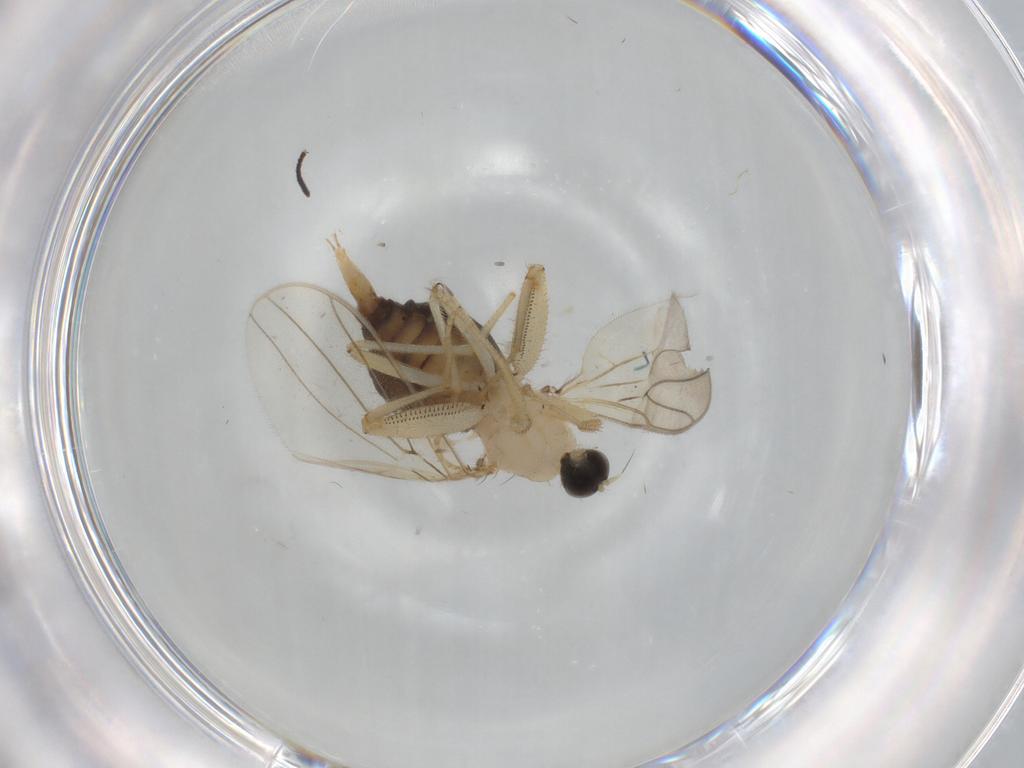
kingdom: Animalia
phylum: Arthropoda
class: Insecta
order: Diptera
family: Hybotidae
